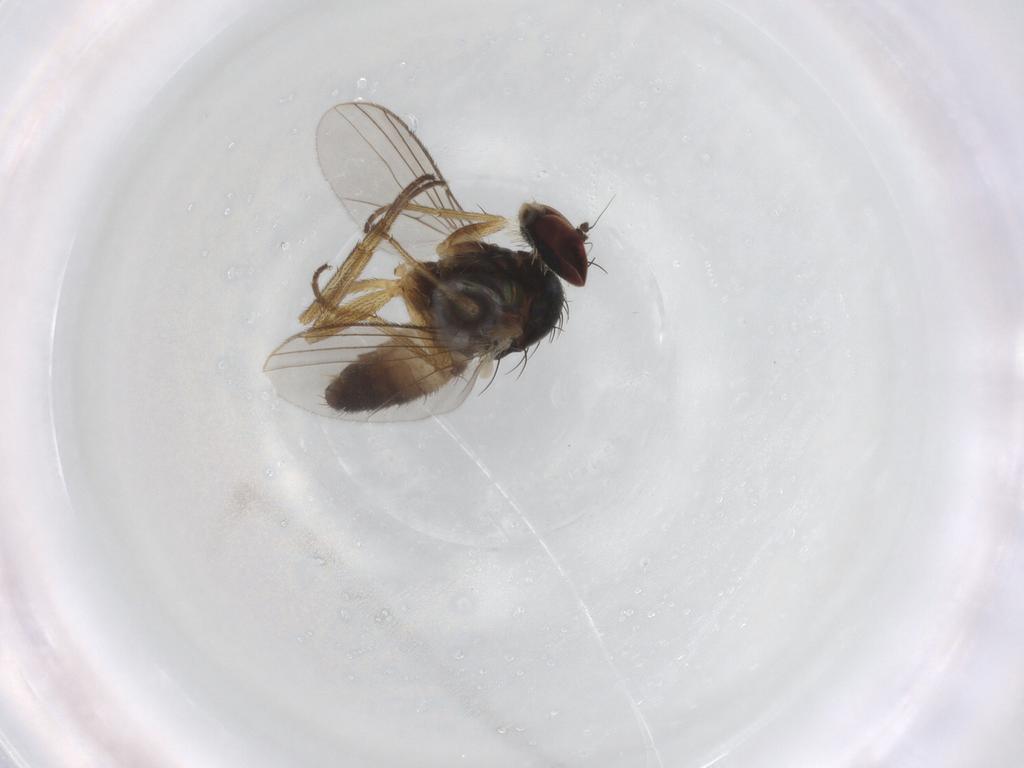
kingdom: Animalia
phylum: Arthropoda
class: Insecta
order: Diptera
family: Dolichopodidae
